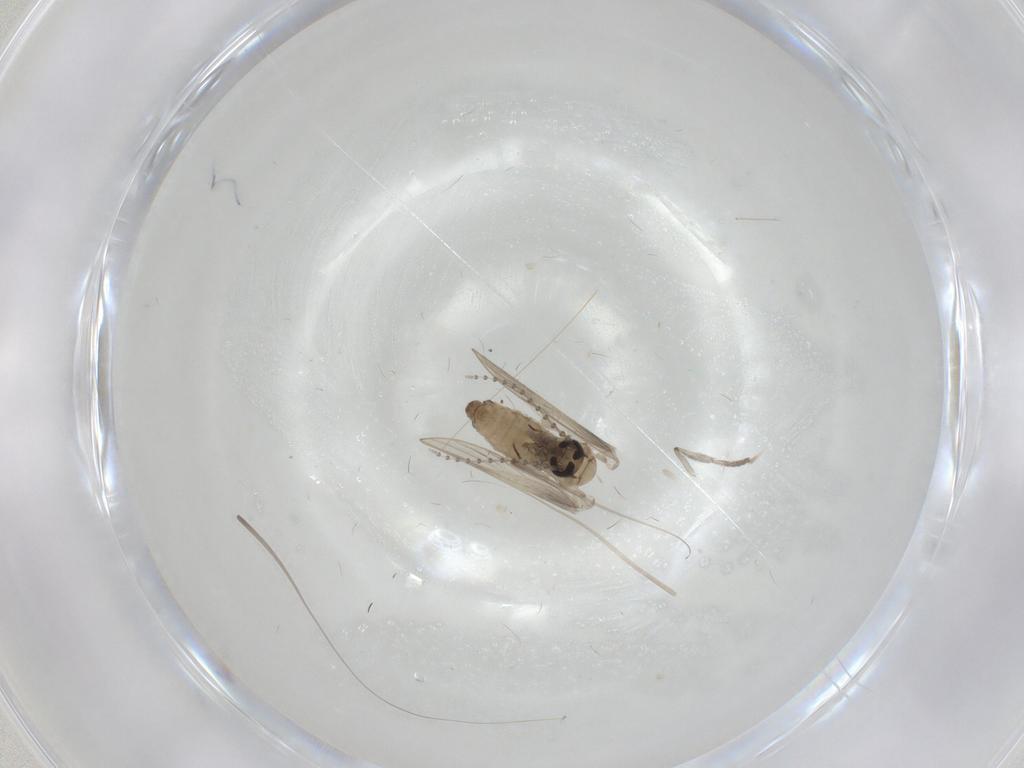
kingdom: Animalia
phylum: Arthropoda
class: Insecta
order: Diptera
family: Psychodidae
